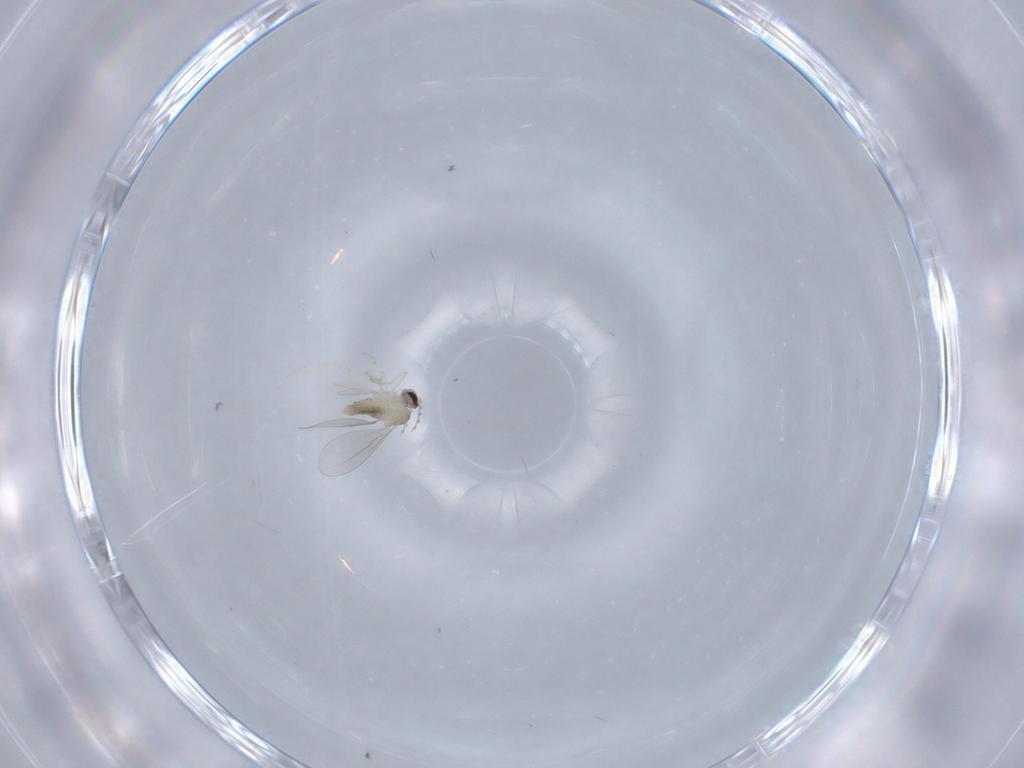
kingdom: Animalia
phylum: Arthropoda
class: Insecta
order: Diptera
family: Cecidomyiidae
